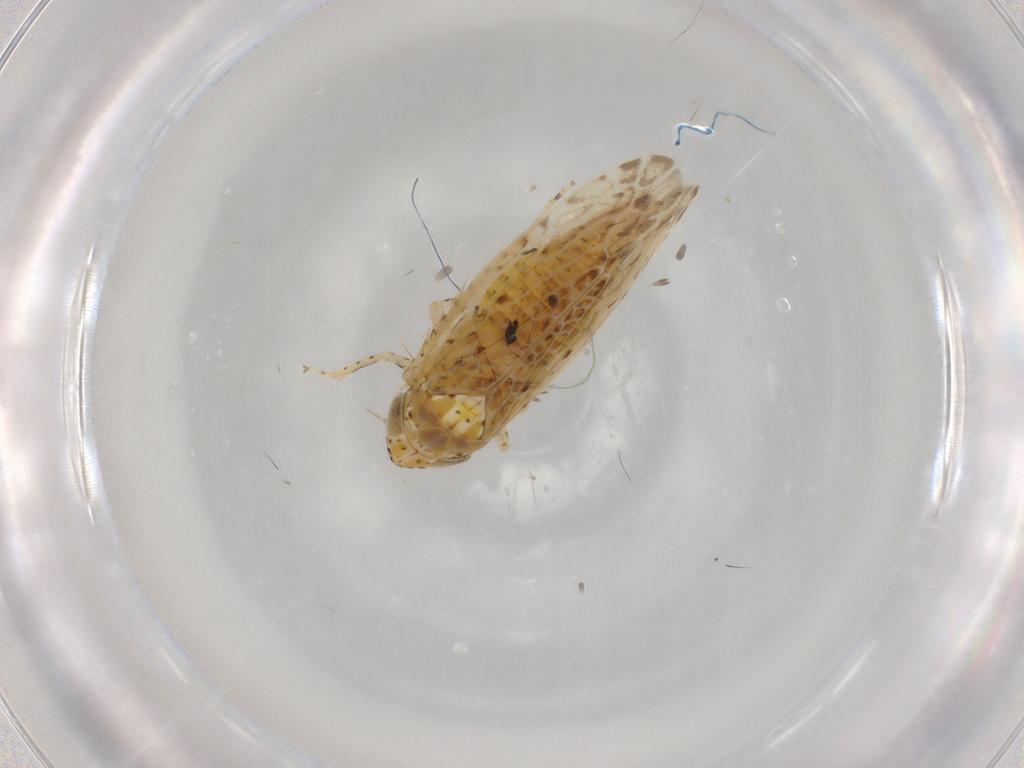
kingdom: Animalia
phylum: Arthropoda
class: Insecta
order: Hemiptera
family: Cicadellidae
